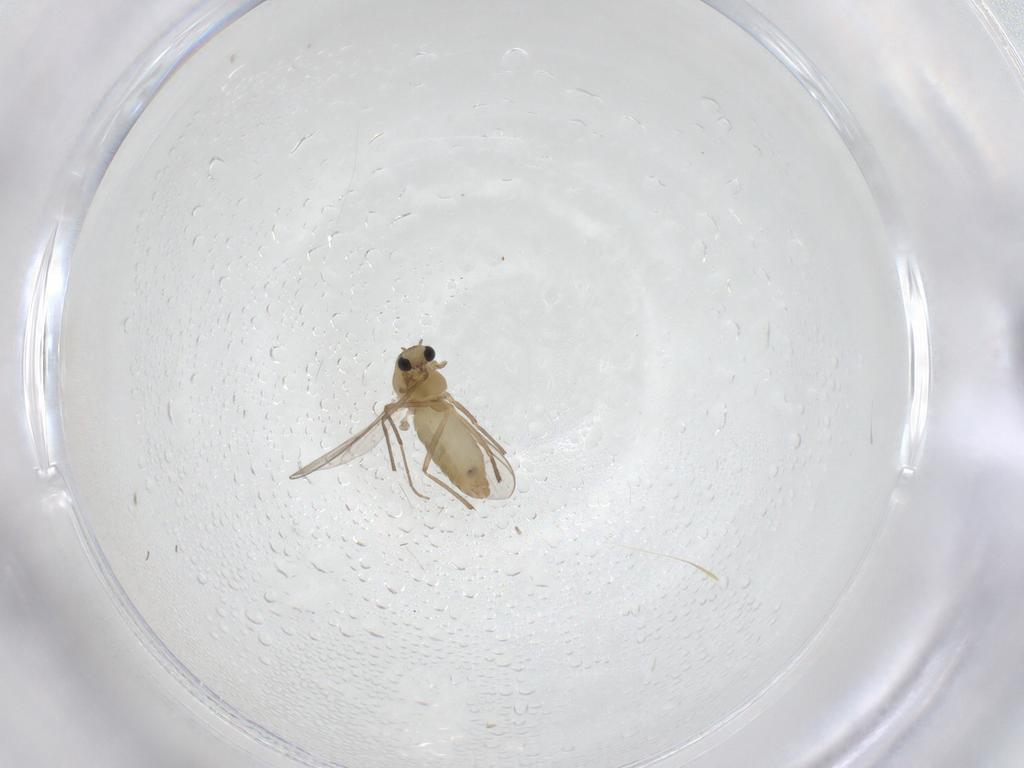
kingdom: Animalia
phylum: Arthropoda
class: Insecta
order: Diptera
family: Chironomidae
